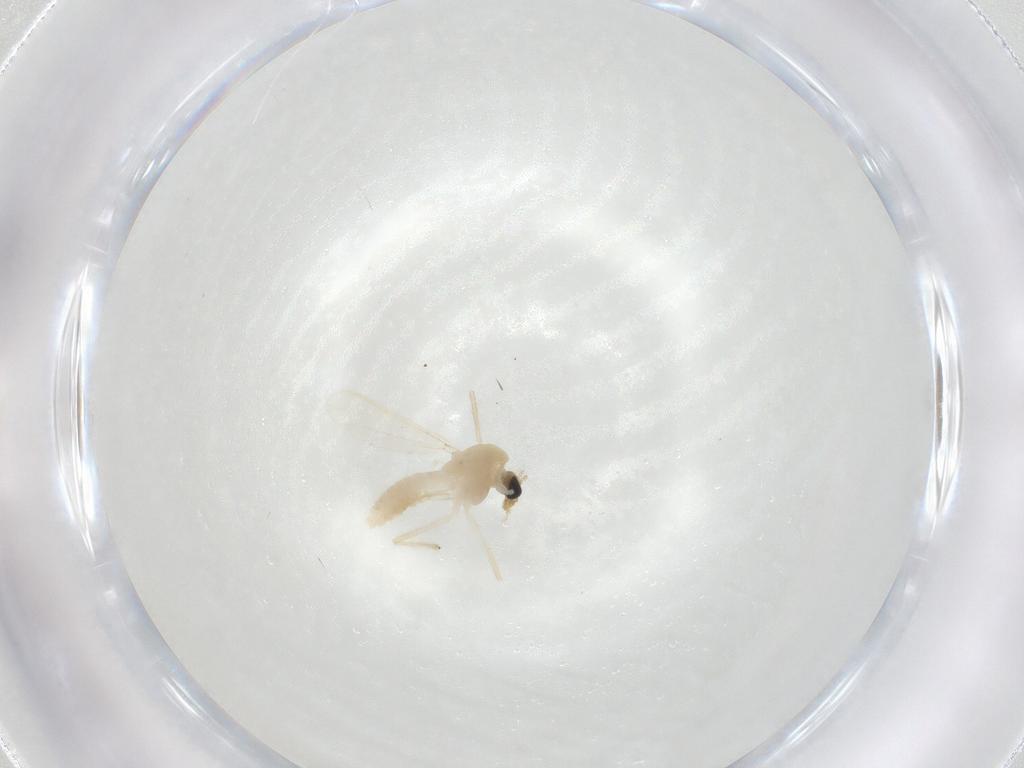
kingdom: Animalia
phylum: Arthropoda
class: Insecta
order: Diptera
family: Chironomidae
